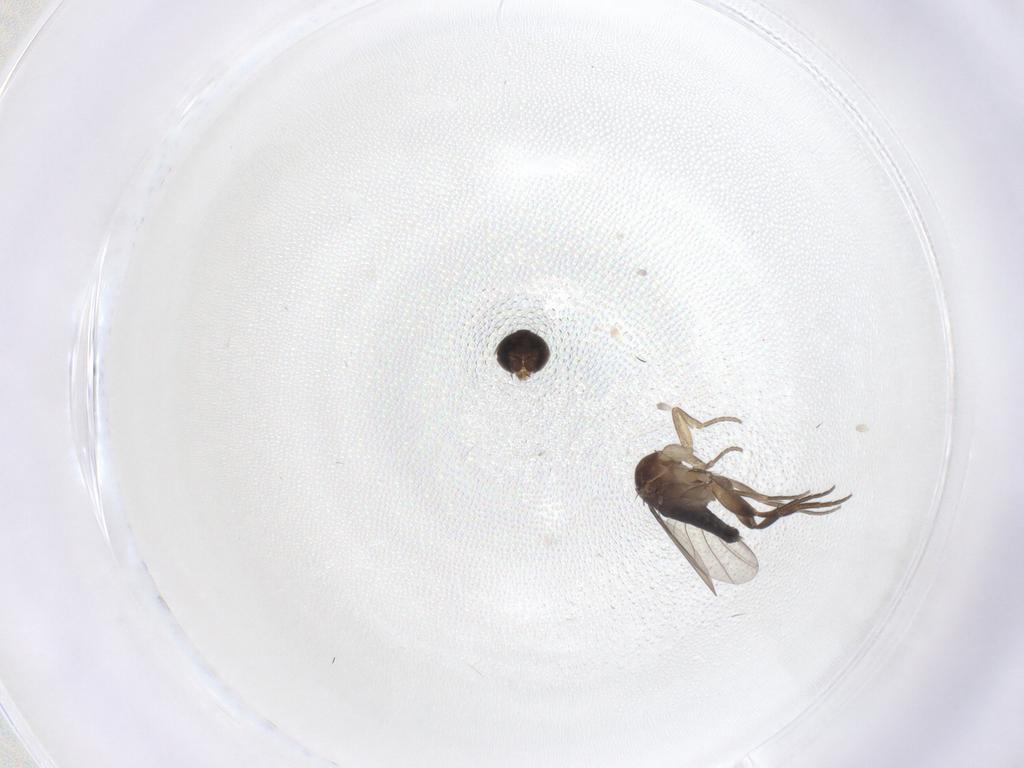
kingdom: Animalia
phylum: Arthropoda
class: Insecta
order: Diptera
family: Phoridae
